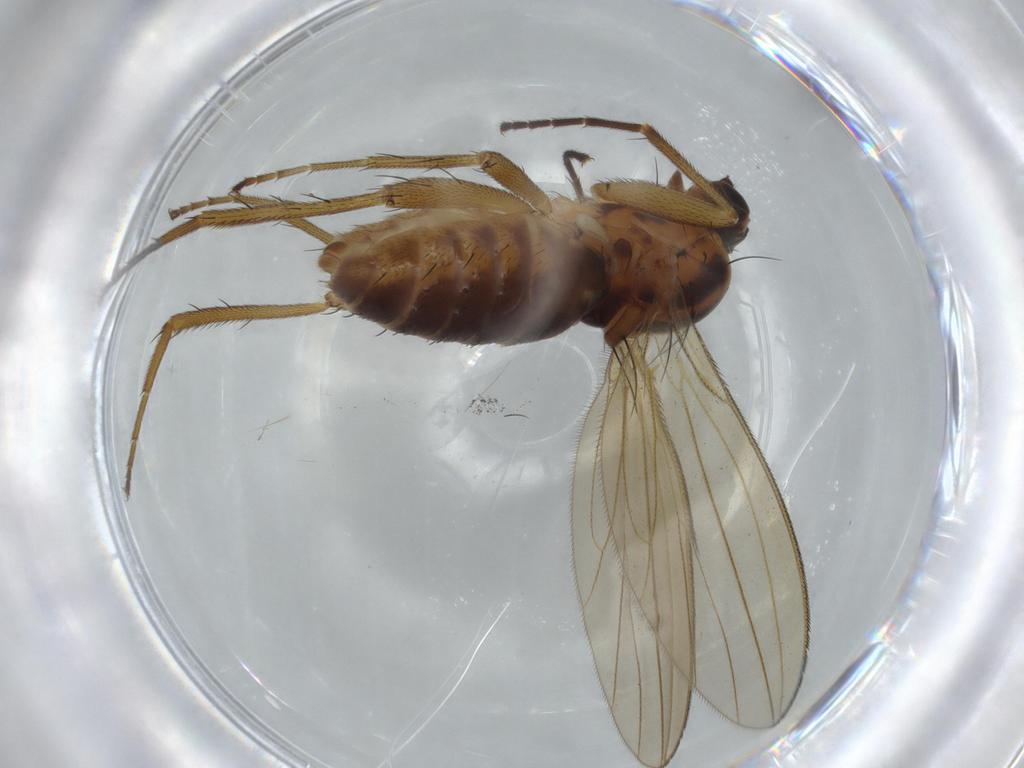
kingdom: Animalia
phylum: Arthropoda
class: Insecta
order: Diptera
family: Lonchopteridae
